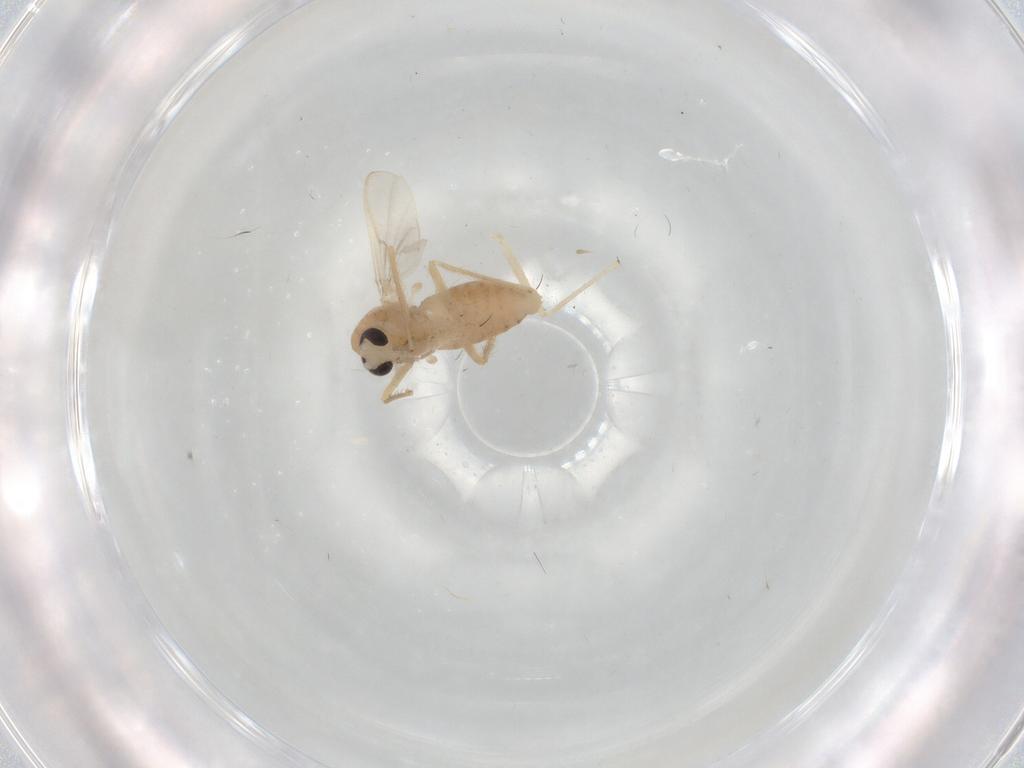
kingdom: Animalia
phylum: Arthropoda
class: Insecta
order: Diptera
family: Chironomidae
